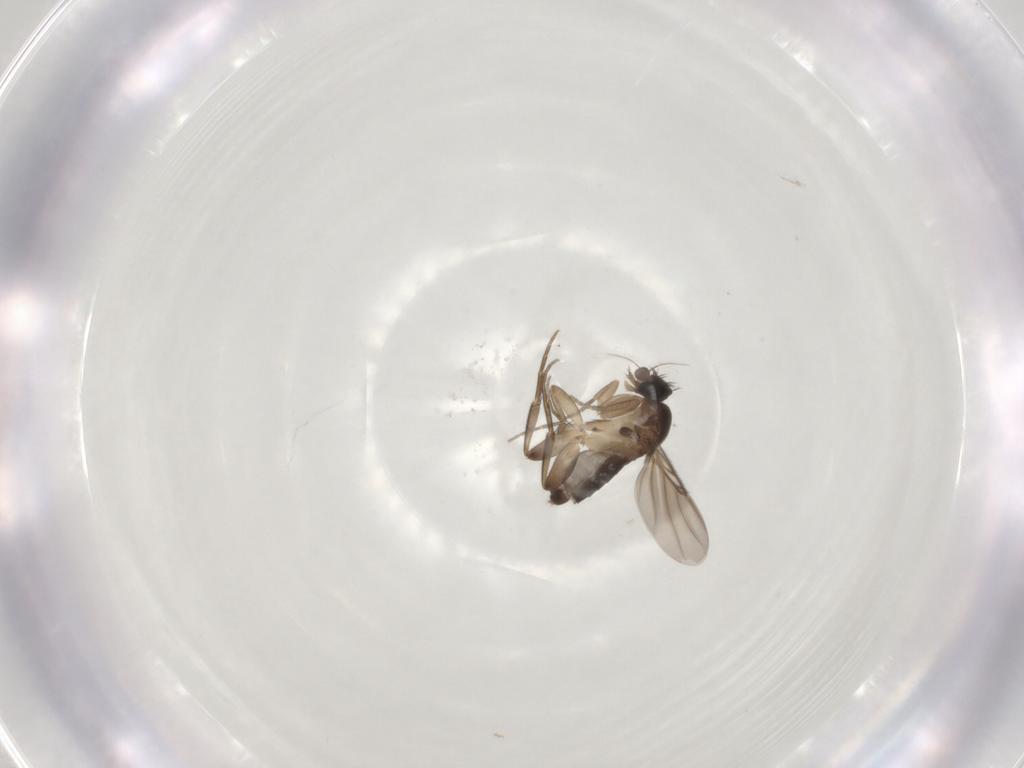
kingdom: Animalia
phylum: Arthropoda
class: Insecta
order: Diptera
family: Phoridae
